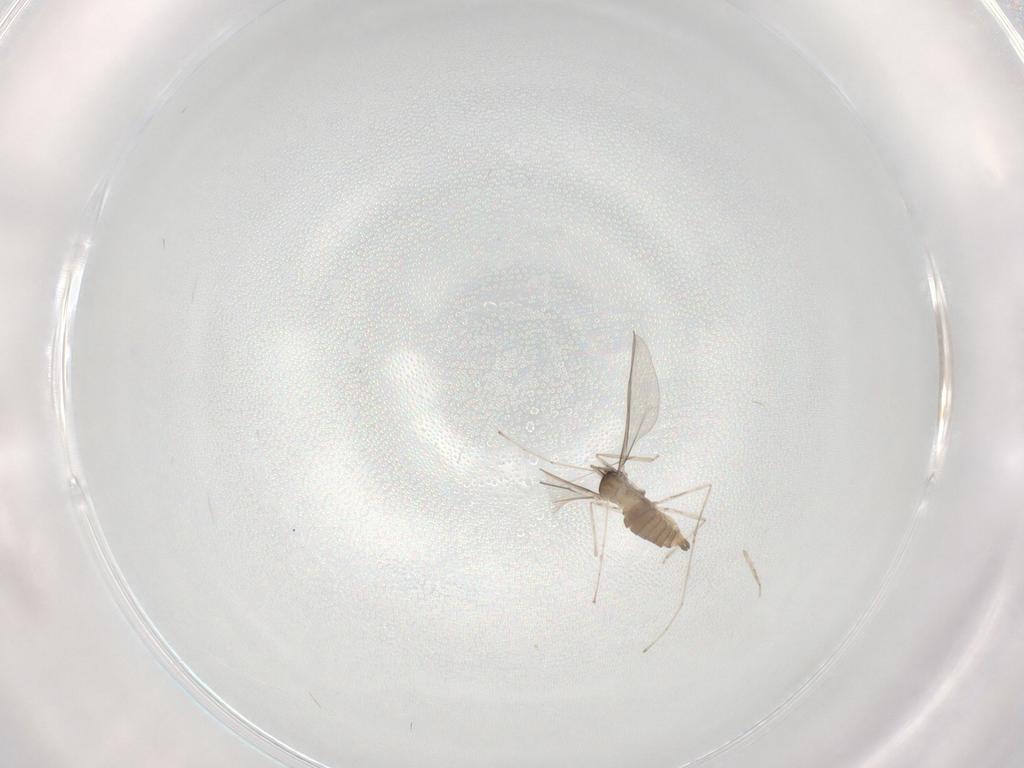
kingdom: Animalia
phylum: Arthropoda
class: Insecta
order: Diptera
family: Cecidomyiidae
